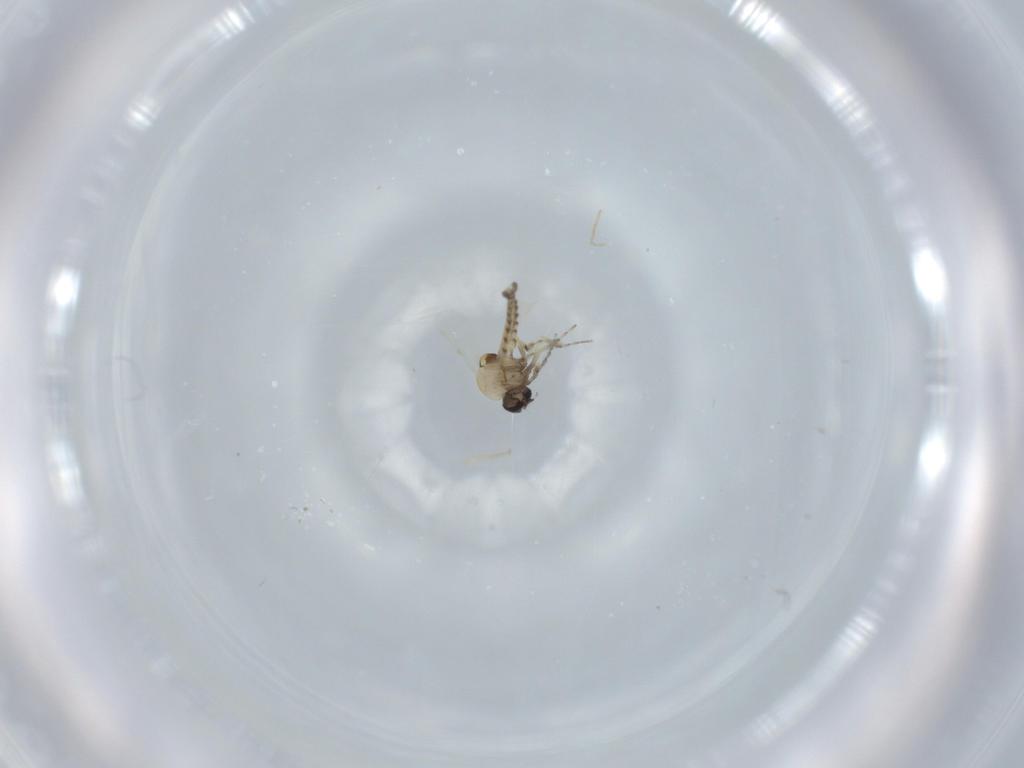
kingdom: Animalia
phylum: Arthropoda
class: Insecta
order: Diptera
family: Ceratopogonidae
